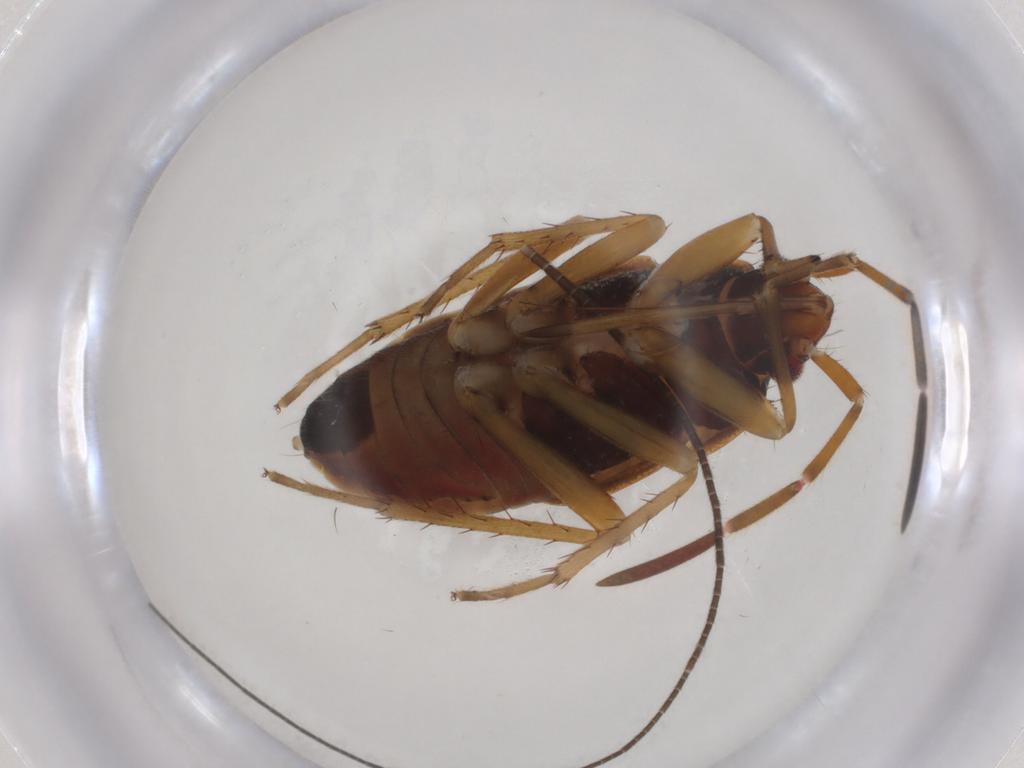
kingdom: Animalia
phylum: Arthropoda
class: Insecta
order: Hemiptera
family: Rhyparochromidae
